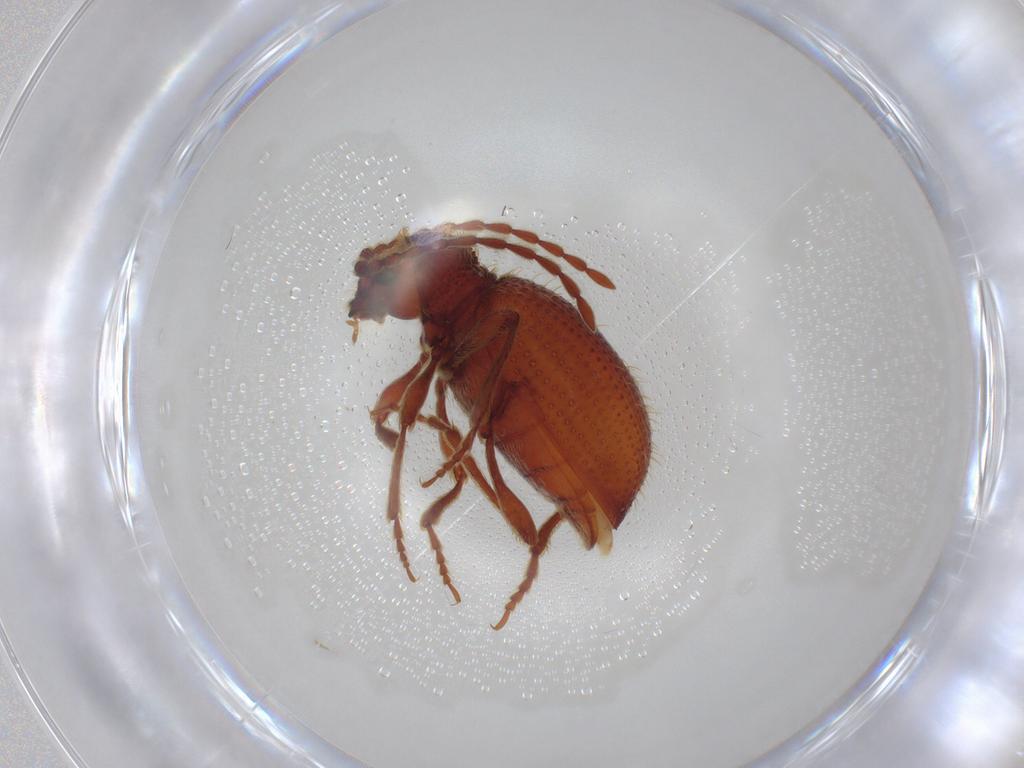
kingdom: Animalia
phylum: Arthropoda
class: Insecta
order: Coleoptera
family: Ptinidae
